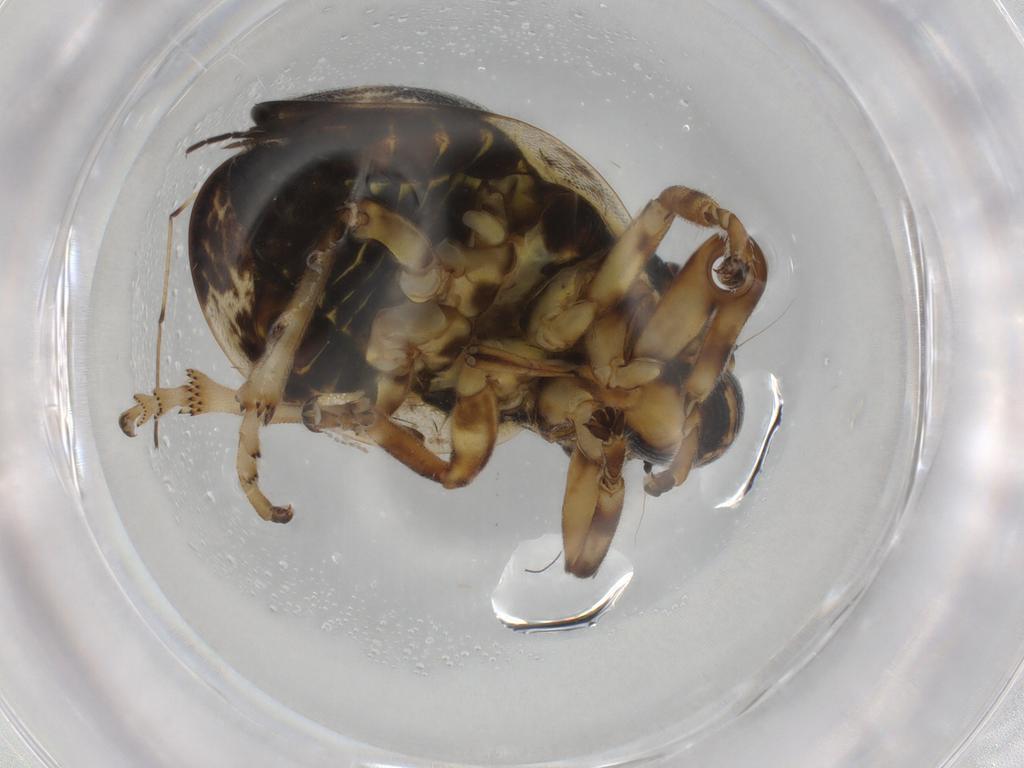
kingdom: Animalia
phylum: Arthropoda
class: Insecta
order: Hemiptera
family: Aphrophoridae
